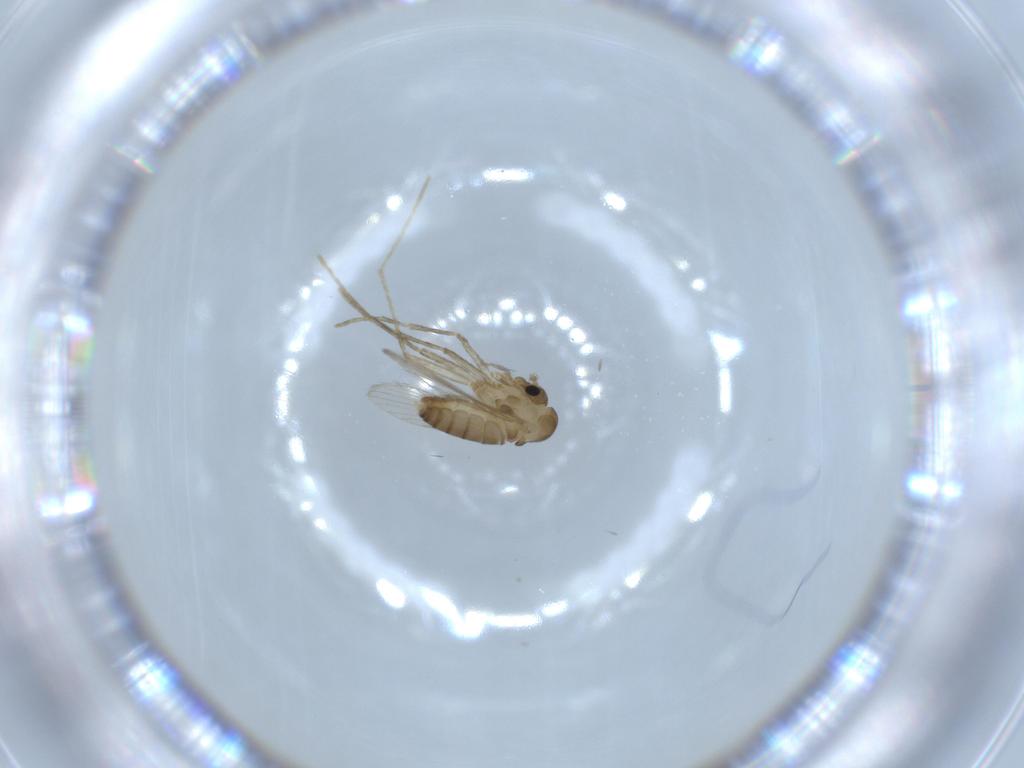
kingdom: Animalia
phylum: Arthropoda
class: Insecta
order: Diptera
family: Psychodidae
